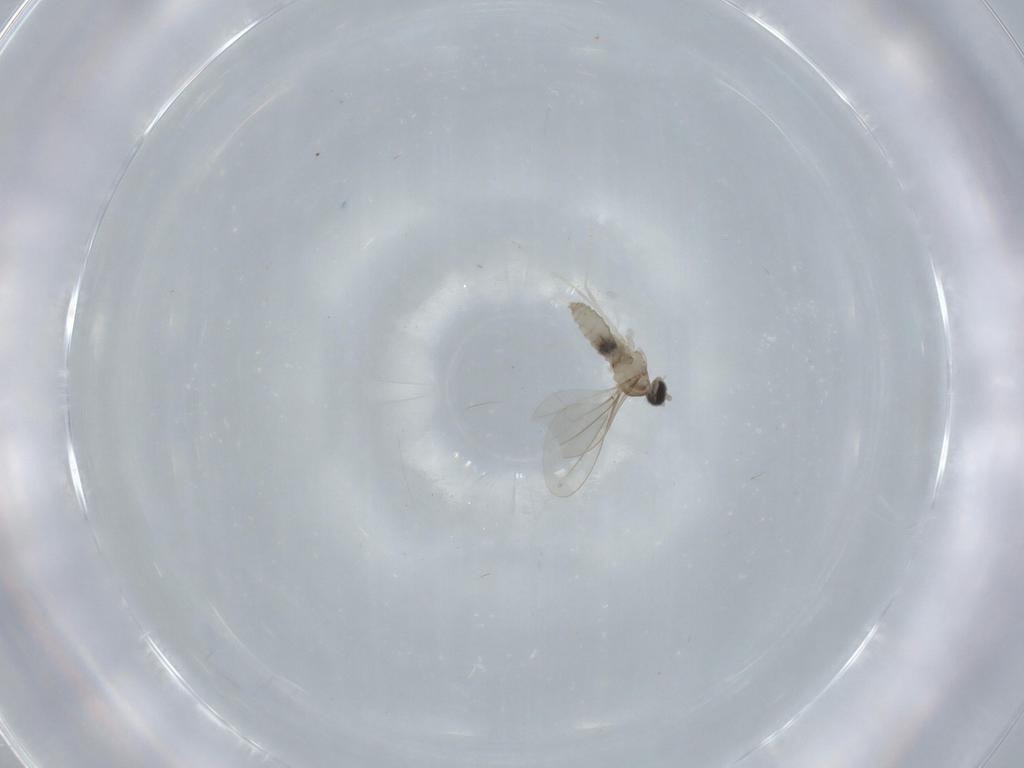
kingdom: Animalia
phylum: Arthropoda
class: Insecta
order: Diptera
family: Cecidomyiidae
